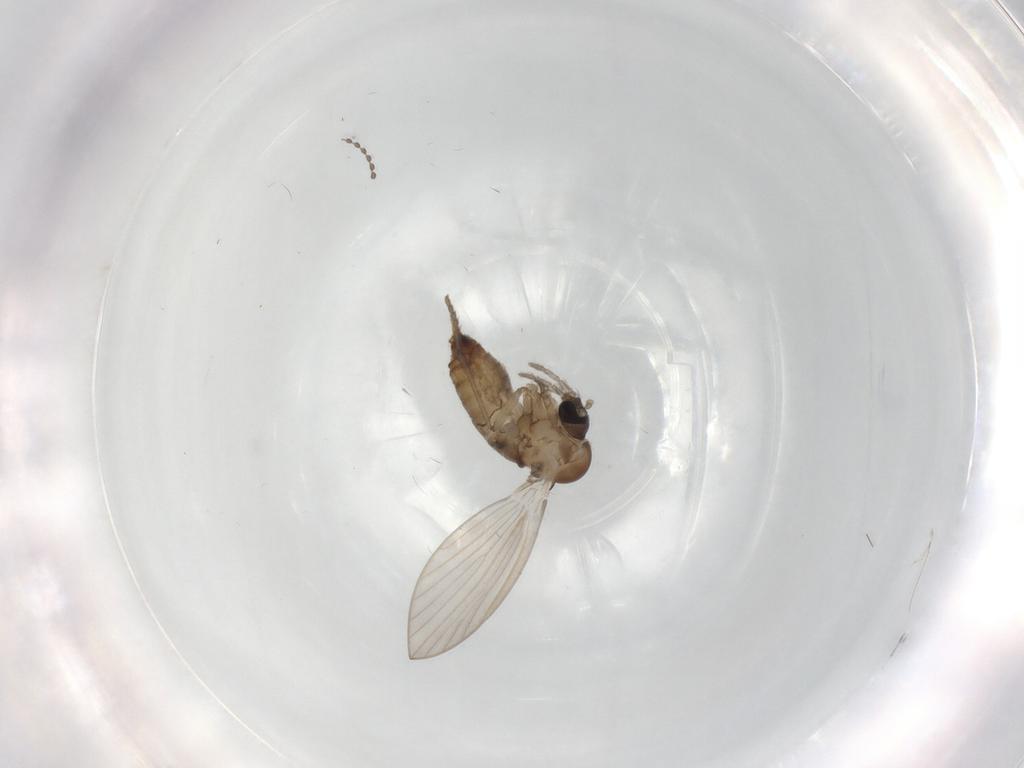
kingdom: Animalia
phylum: Arthropoda
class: Insecta
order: Diptera
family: Psychodidae
